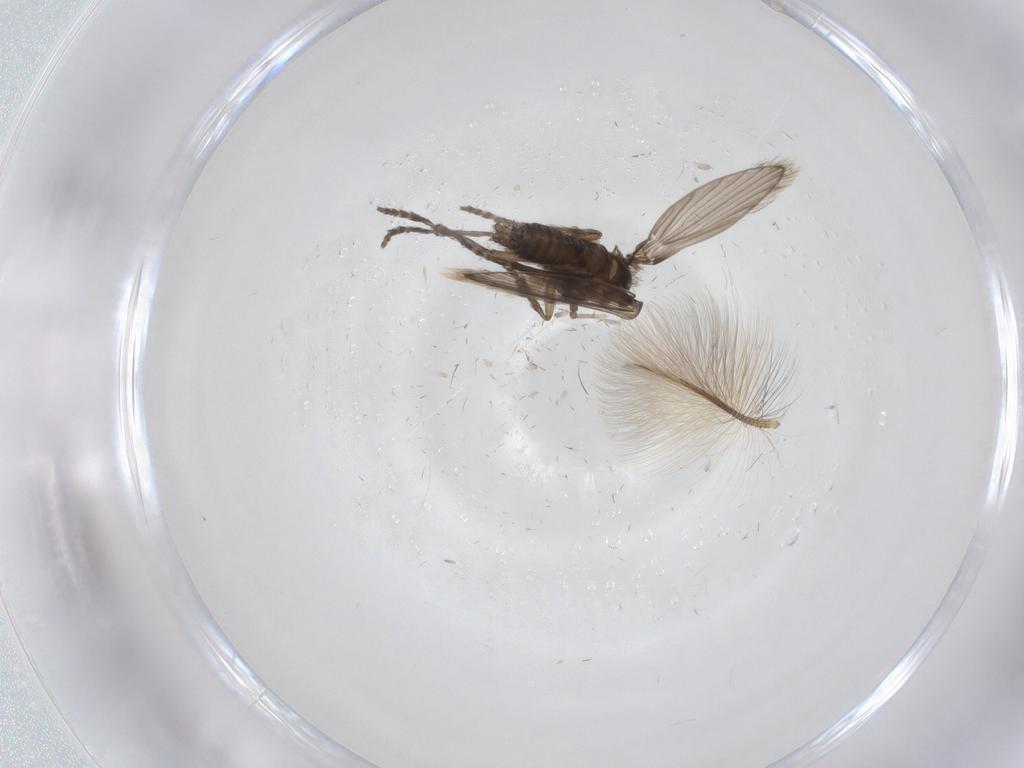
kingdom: Animalia
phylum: Arthropoda
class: Insecta
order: Diptera
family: Psychodidae
